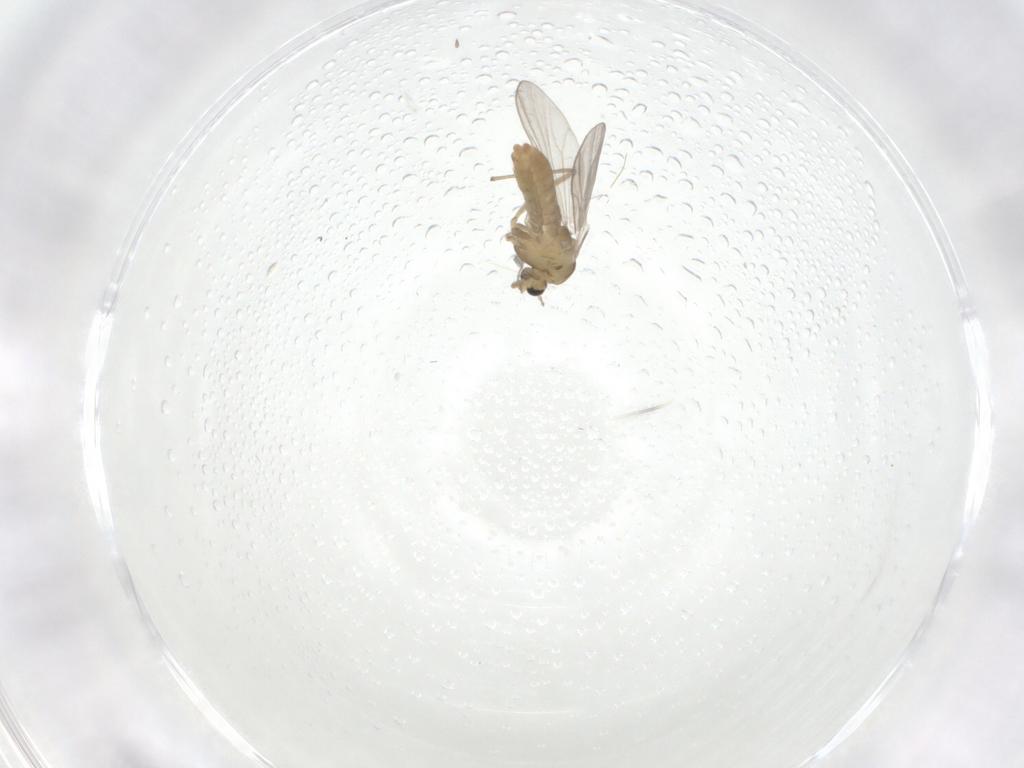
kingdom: Animalia
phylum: Arthropoda
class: Insecta
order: Diptera
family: Chironomidae
